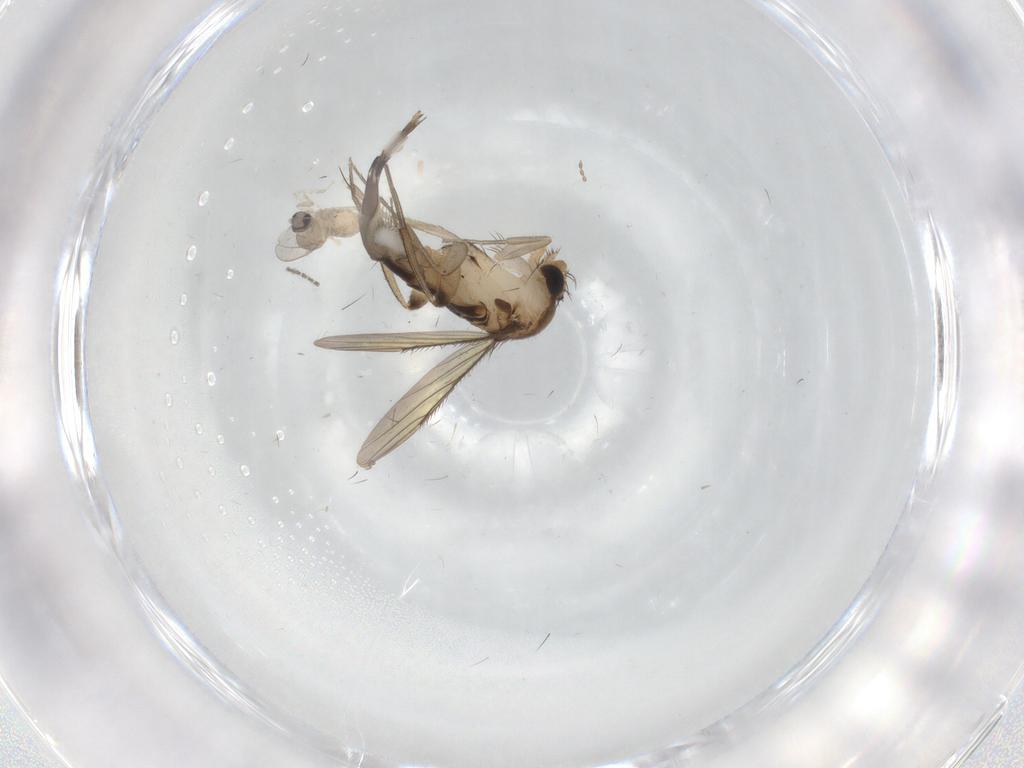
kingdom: Animalia
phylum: Arthropoda
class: Insecta
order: Diptera
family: Phoridae
